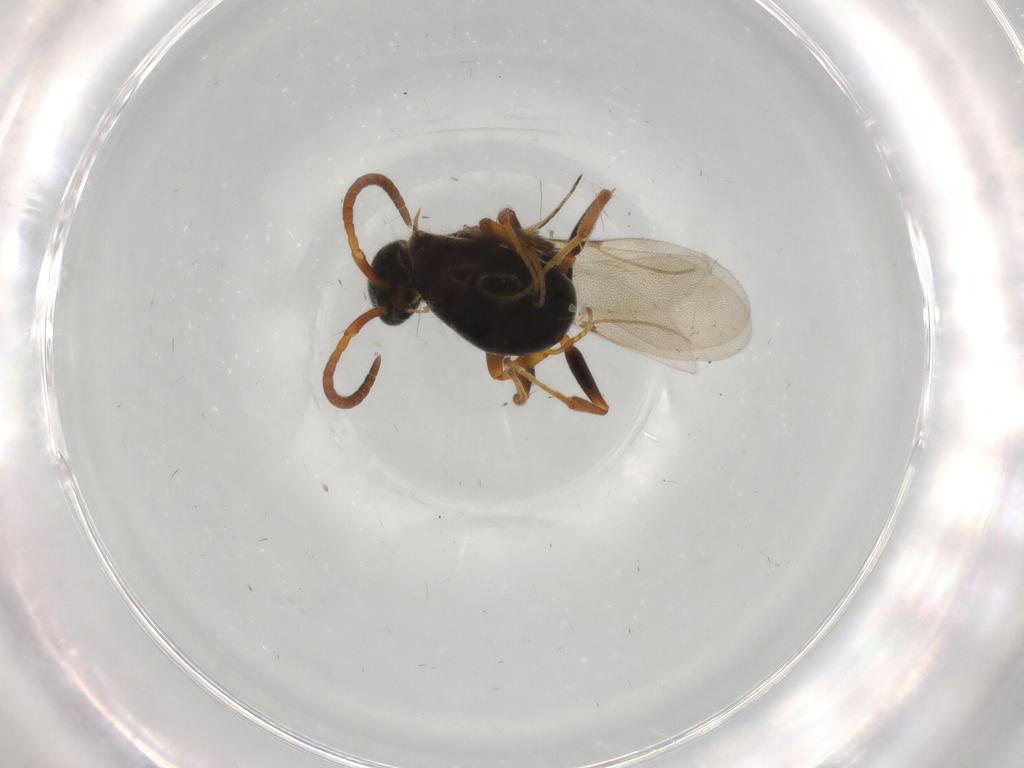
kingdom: Animalia
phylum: Arthropoda
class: Insecta
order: Hymenoptera
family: Bethylidae
